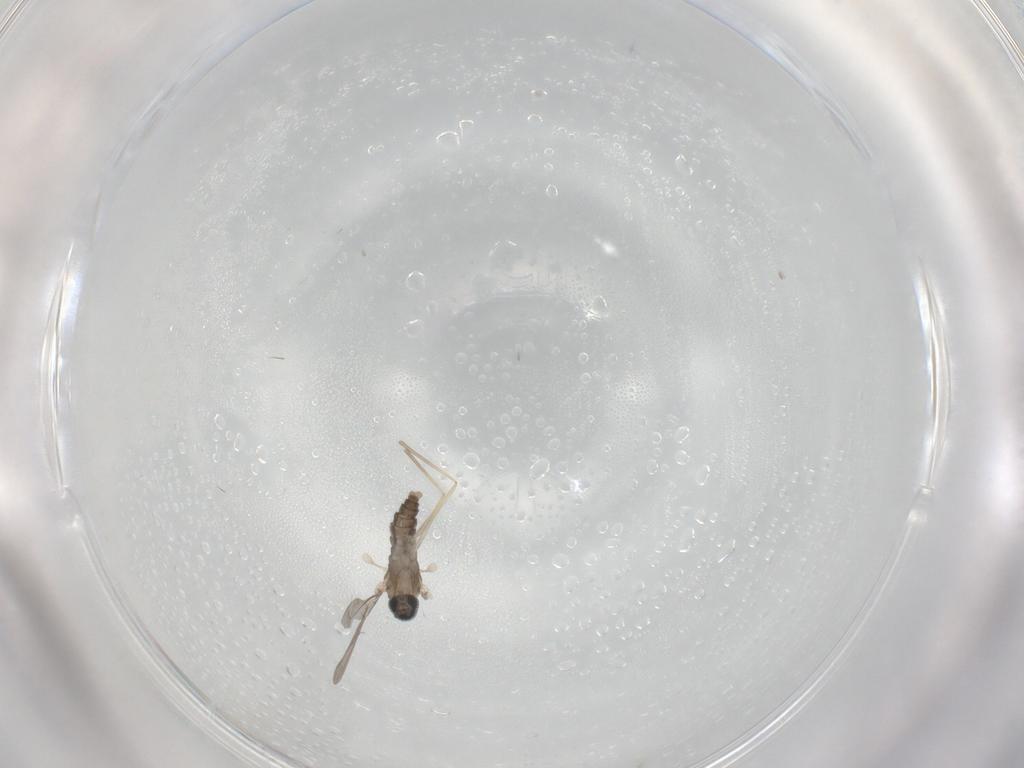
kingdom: Animalia
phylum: Arthropoda
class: Insecta
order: Diptera
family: Cecidomyiidae
